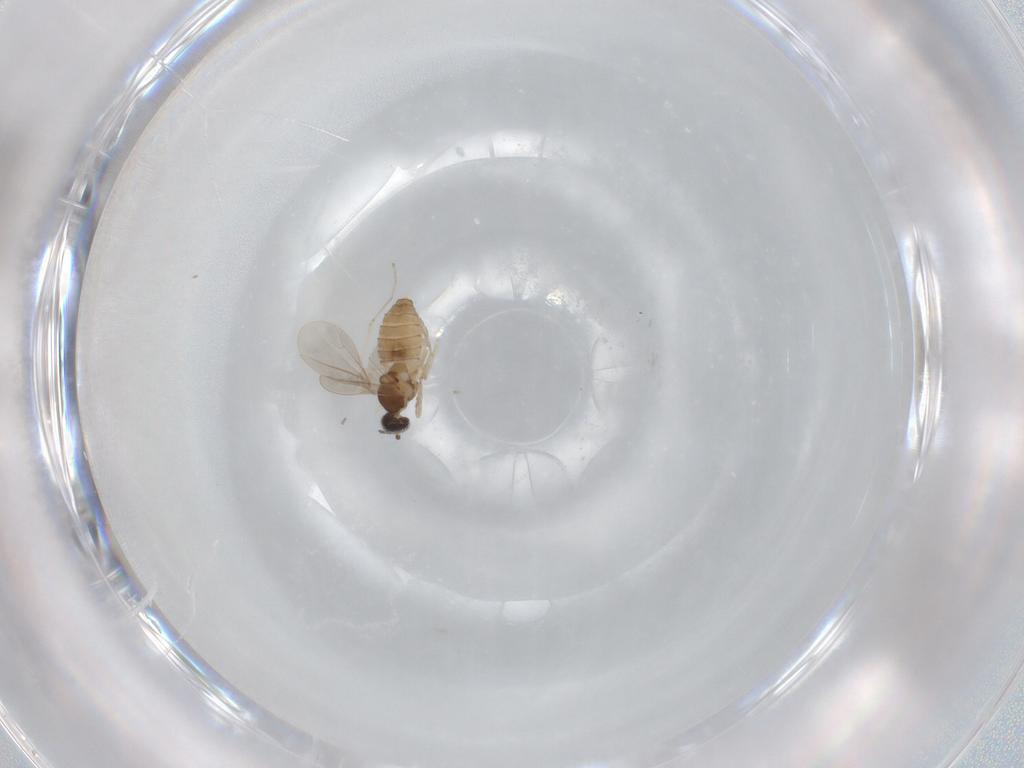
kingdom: Animalia
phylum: Arthropoda
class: Insecta
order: Diptera
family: Cecidomyiidae
